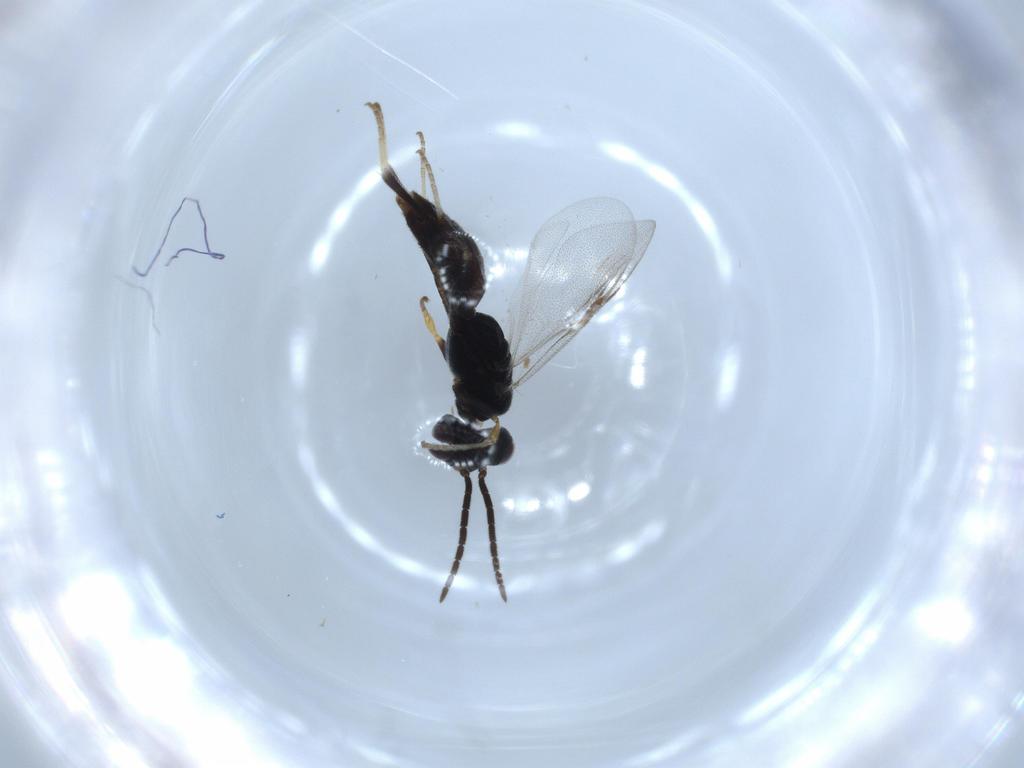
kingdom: Animalia
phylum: Arthropoda
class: Insecta
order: Hymenoptera
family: Dryinidae
